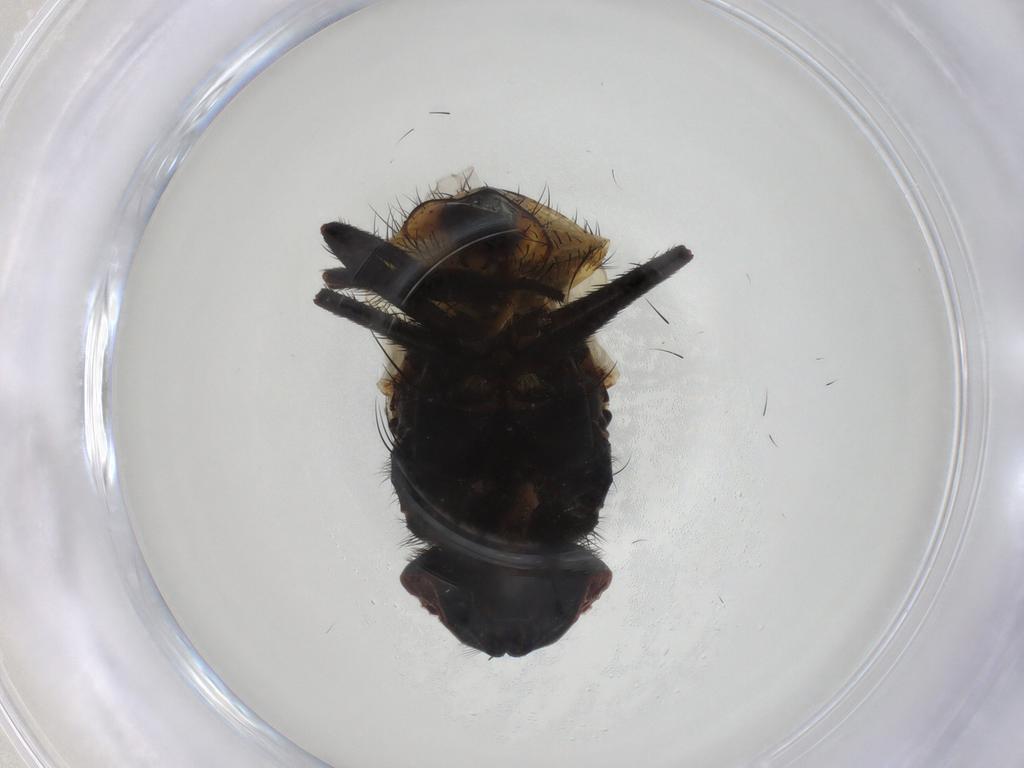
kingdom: Animalia
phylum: Arthropoda
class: Insecta
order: Diptera
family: Muscidae
